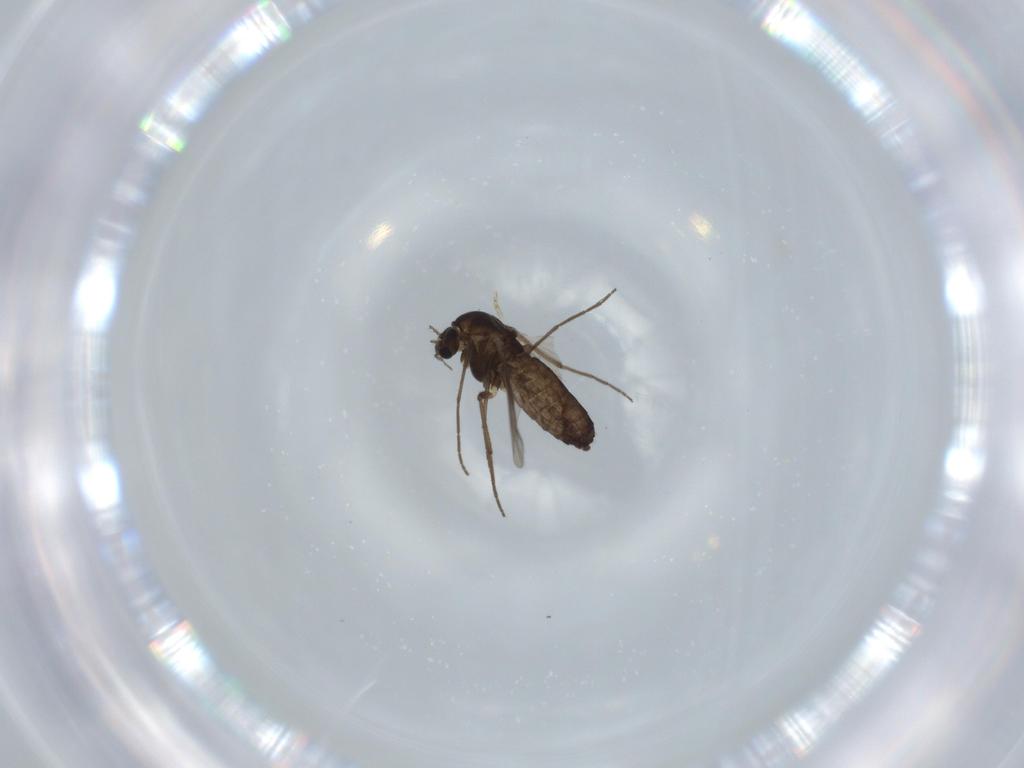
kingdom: Animalia
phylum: Arthropoda
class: Insecta
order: Diptera
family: Chironomidae
